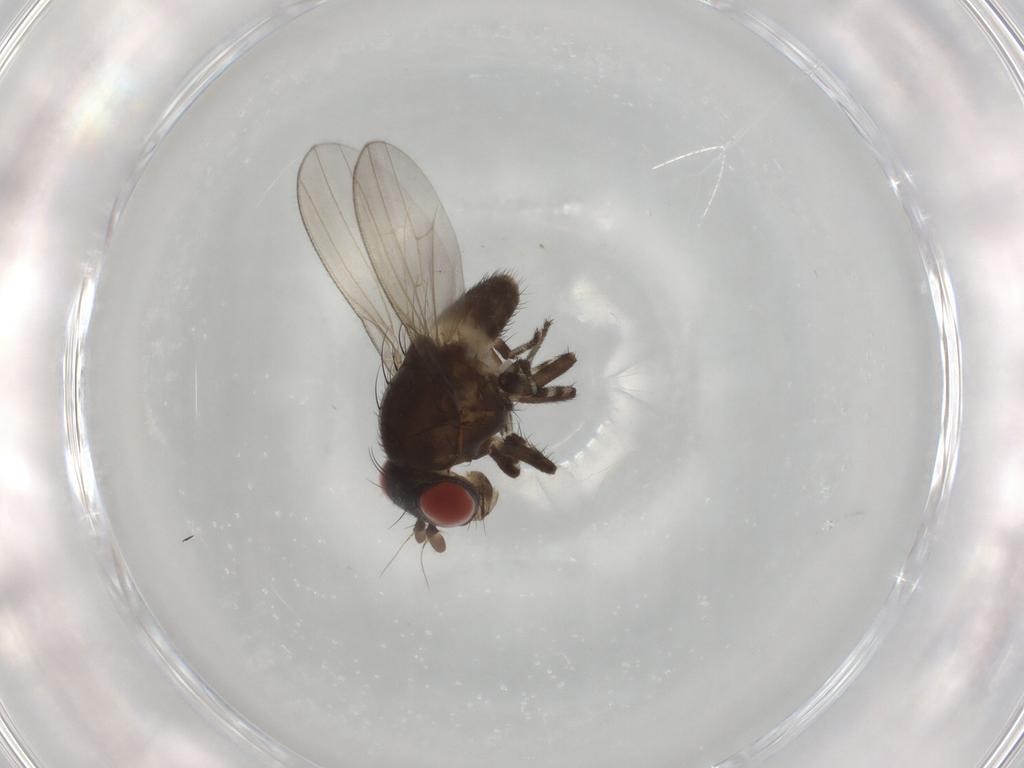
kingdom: Animalia
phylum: Arthropoda
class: Insecta
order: Diptera
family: Lauxaniidae
